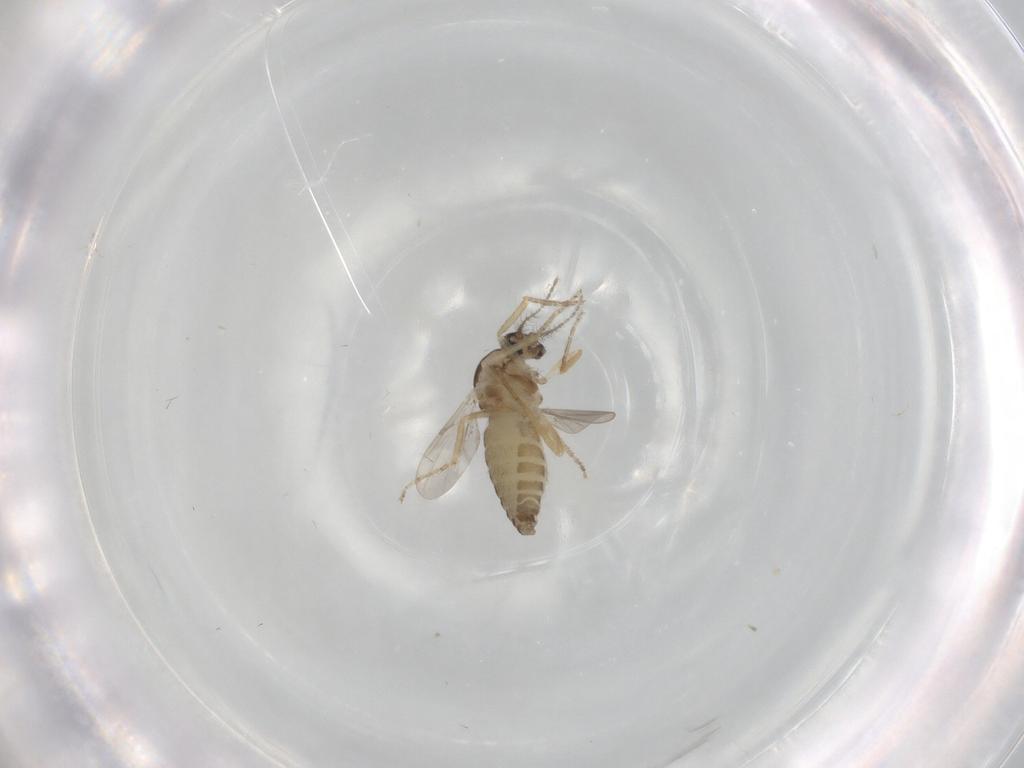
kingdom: Animalia
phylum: Arthropoda
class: Insecta
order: Diptera
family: Ceratopogonidae
